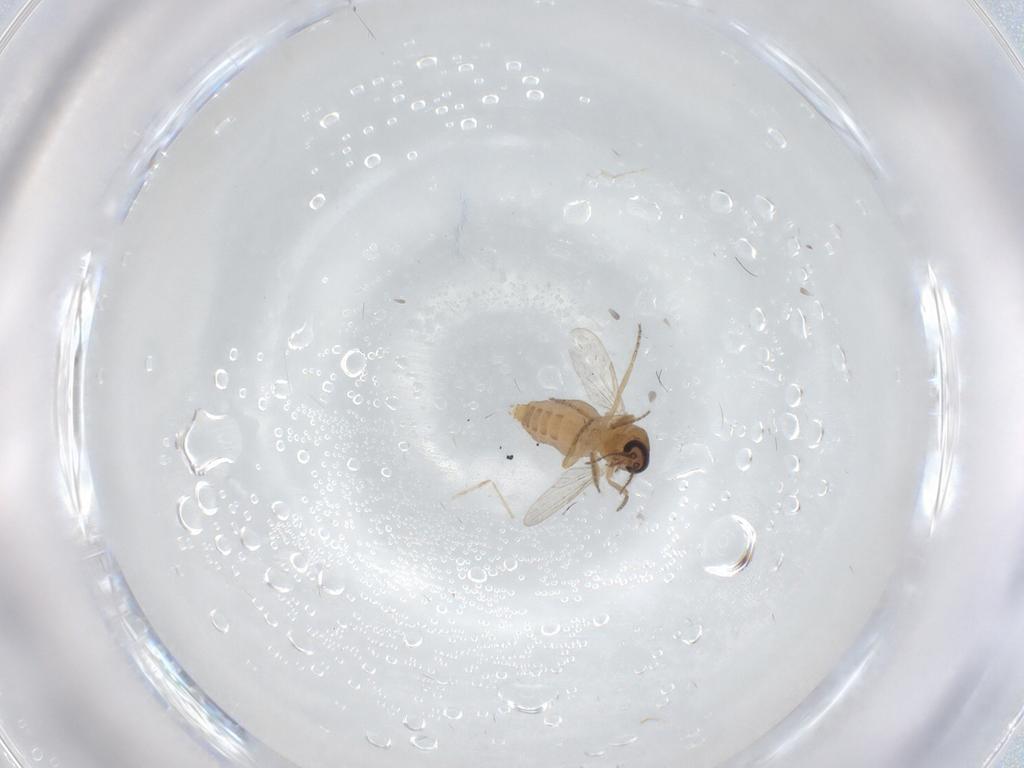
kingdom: Animalia
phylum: Arthropoda
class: Insecta
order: Diptera
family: Ceratopogonidae
